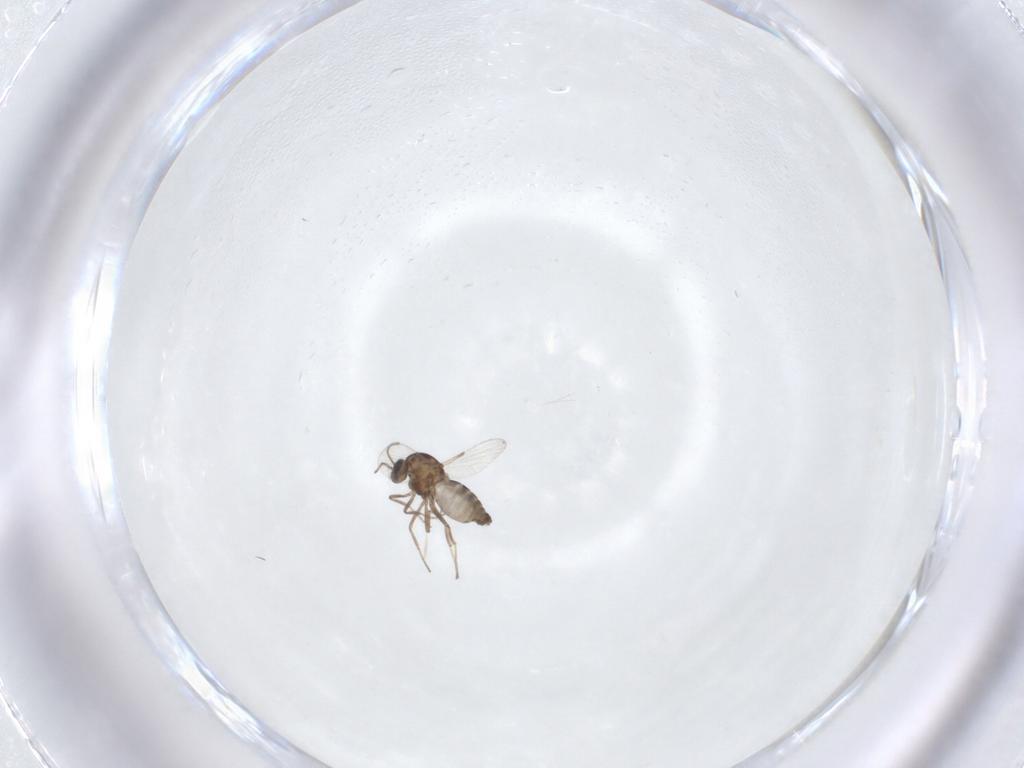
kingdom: Animalia
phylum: Arthropoda
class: Insecta
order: Diptera
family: Ceratopogonidae
